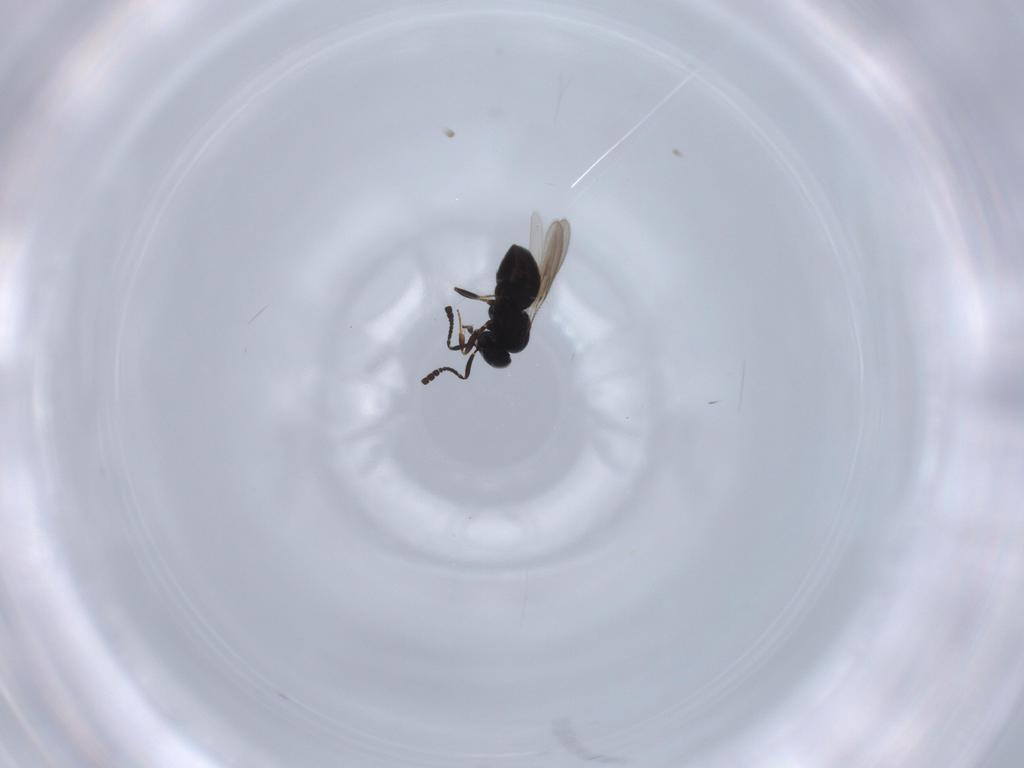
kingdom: Animalia
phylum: Arthropoda
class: Insecta
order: Hymenoptera
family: Scelionidae
